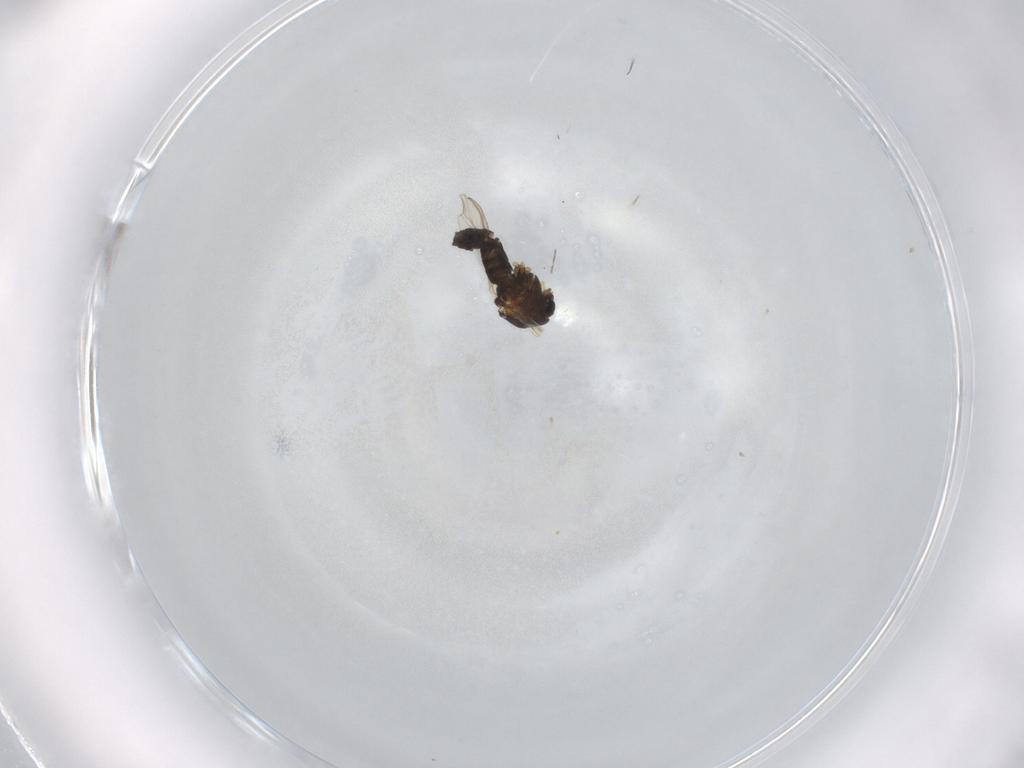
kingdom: Animalia
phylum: Arthropoda
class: Insecta
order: Diptera
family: Chironomidae
